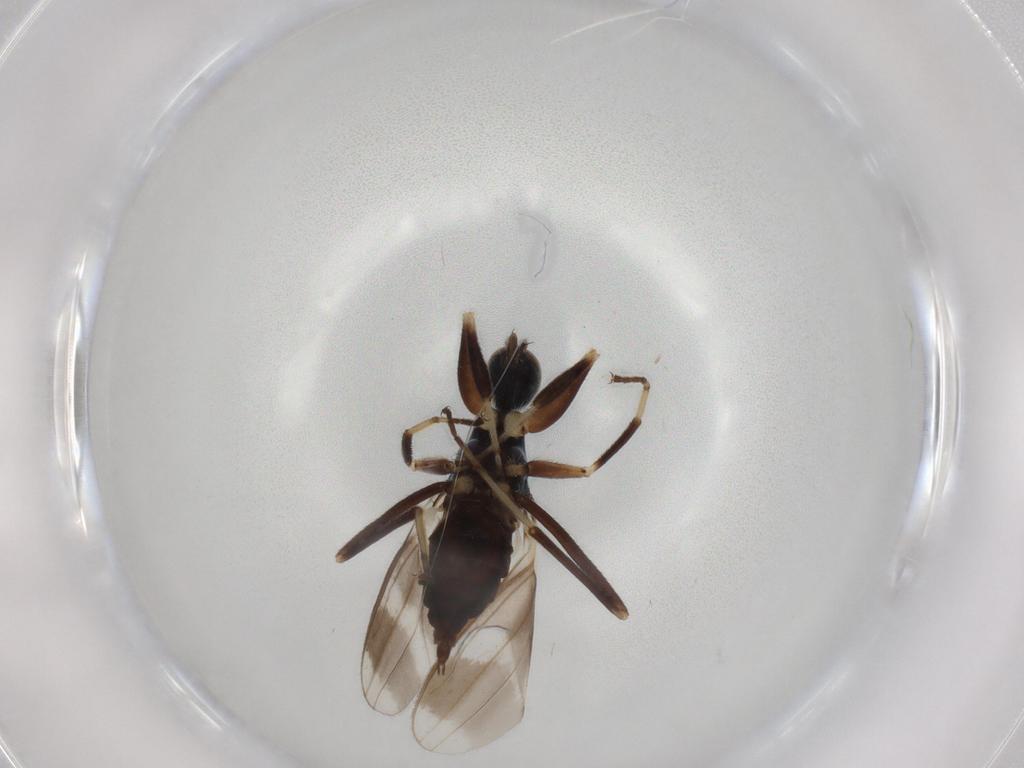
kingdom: Animalia
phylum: Arthropoda
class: Insecta
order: Diptera
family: Hybotidae
